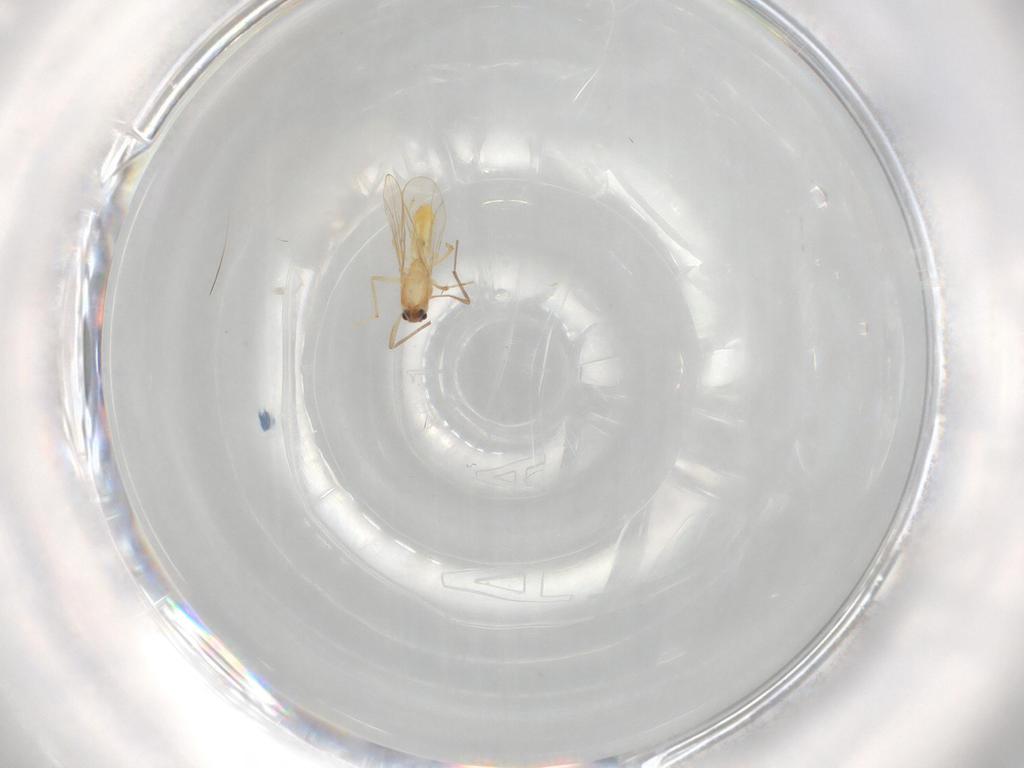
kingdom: Animalia
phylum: Arthropoda
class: Insecta
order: Diptera
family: Chironomidae
